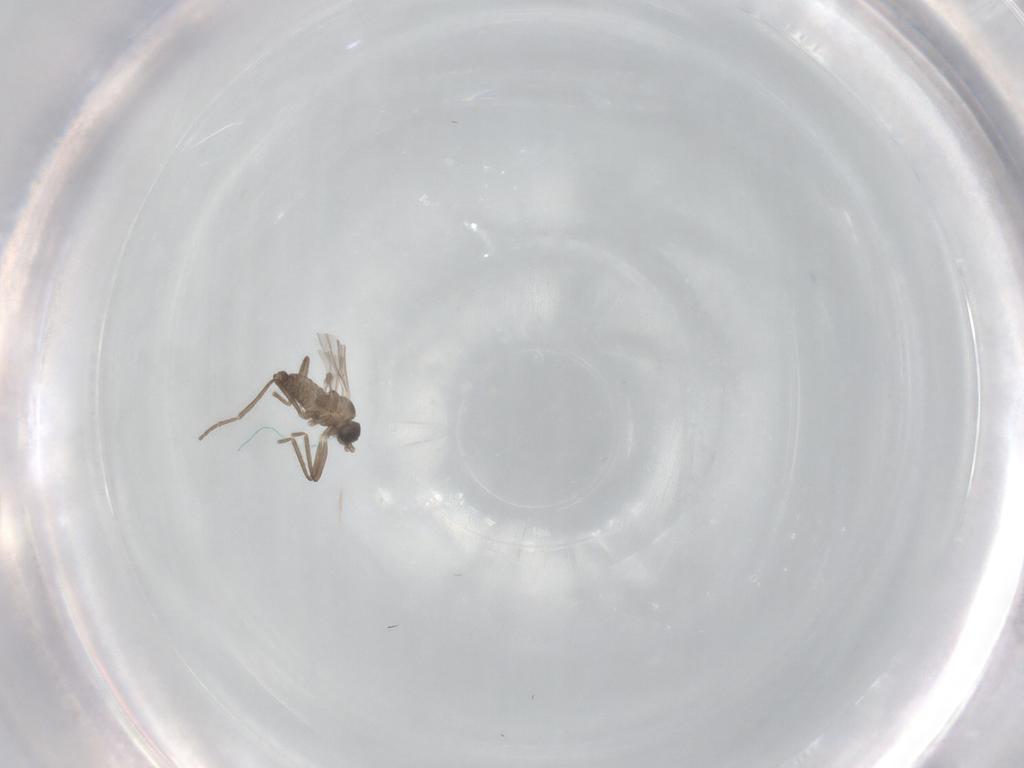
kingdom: Animalia
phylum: Arthropoda
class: Insecta
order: Diptera
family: Cecidomyiidae
